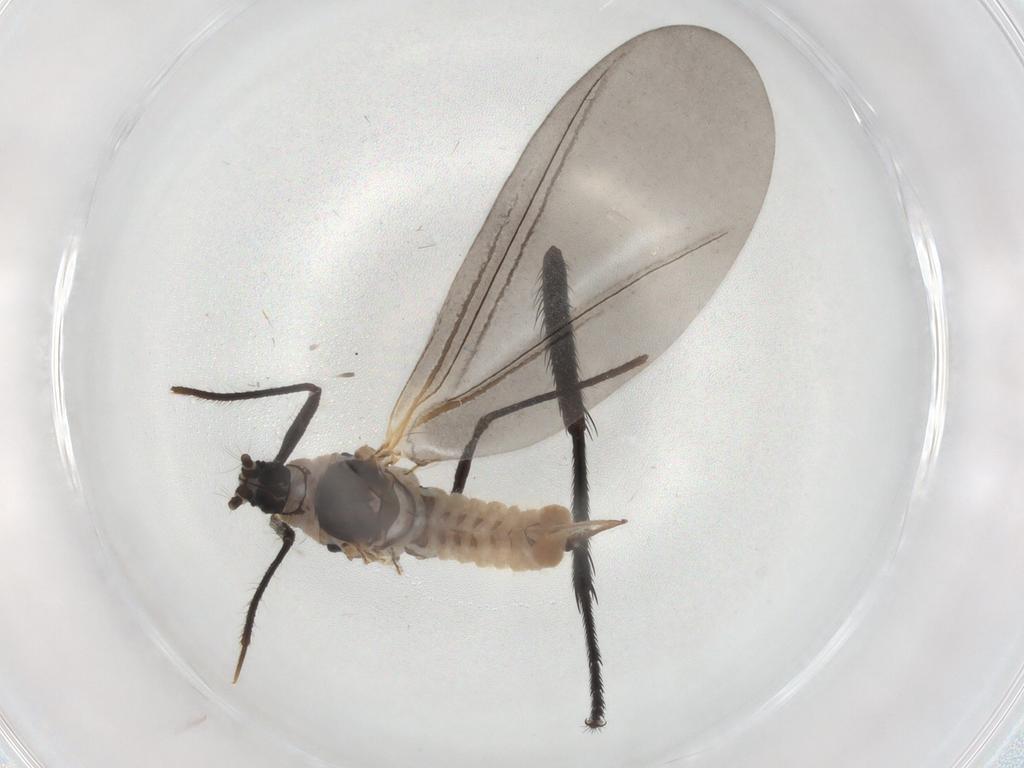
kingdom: Animalia
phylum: Arthropoda
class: Insecta
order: Hemiptera
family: Putoidae
